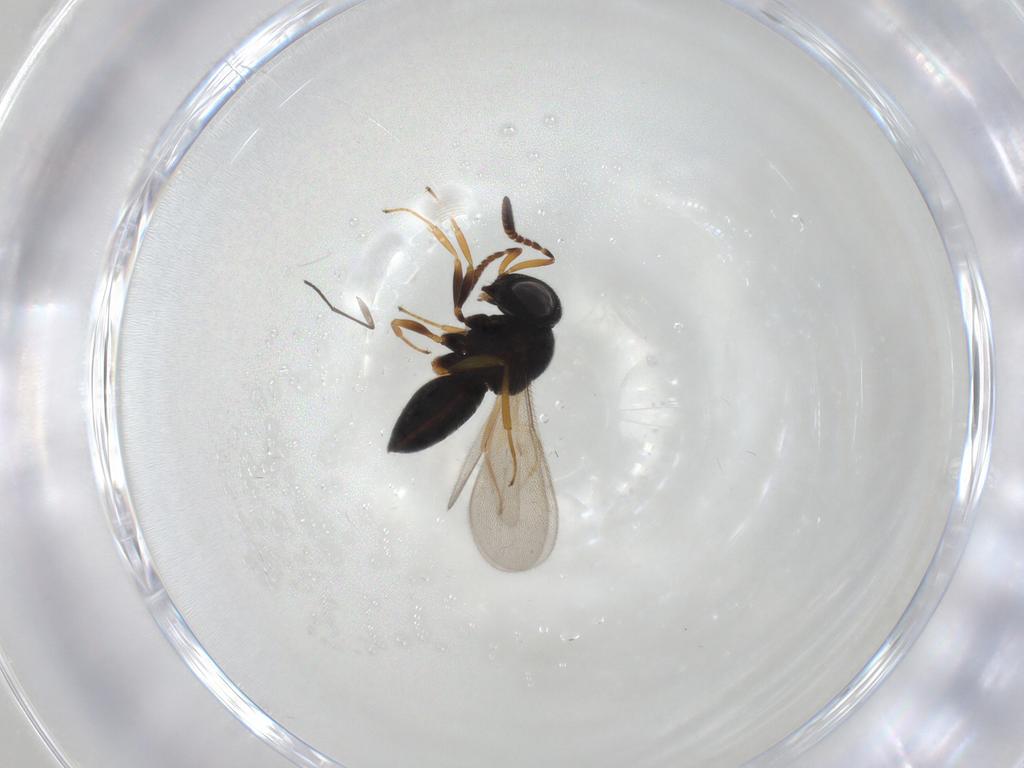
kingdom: Animalia
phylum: Arthropoda
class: Insecta
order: Hymenoptera
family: Scelionidae
